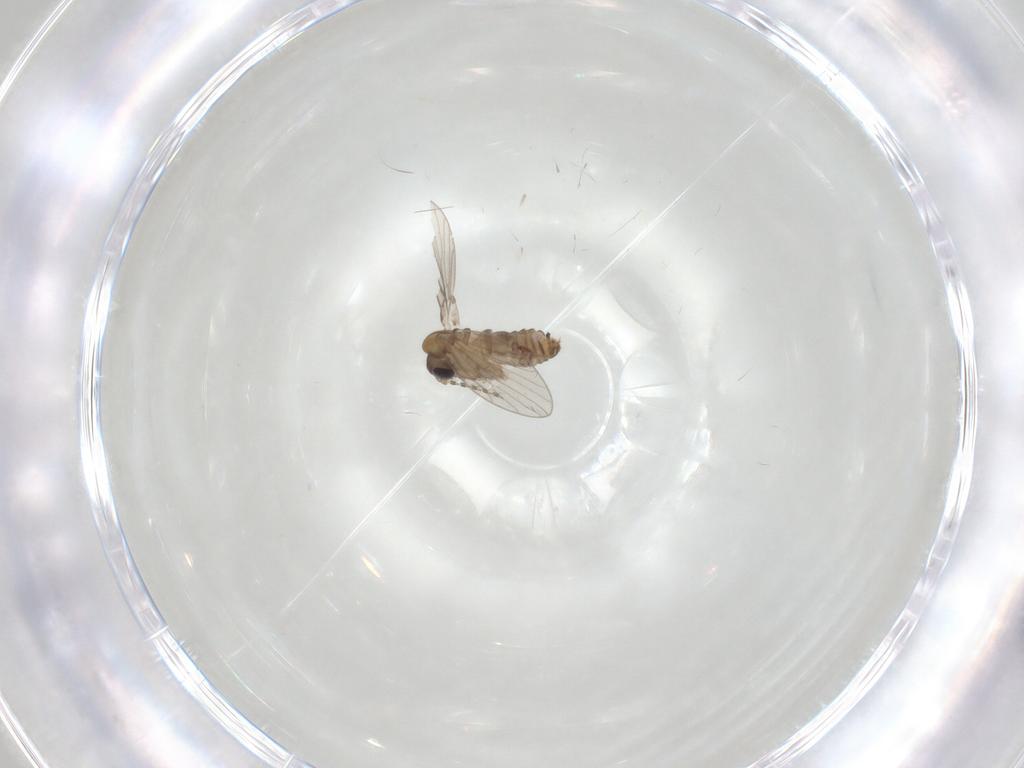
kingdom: Animalia
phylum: Arthropoda
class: Insecta
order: Diptera
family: Psychodidae
